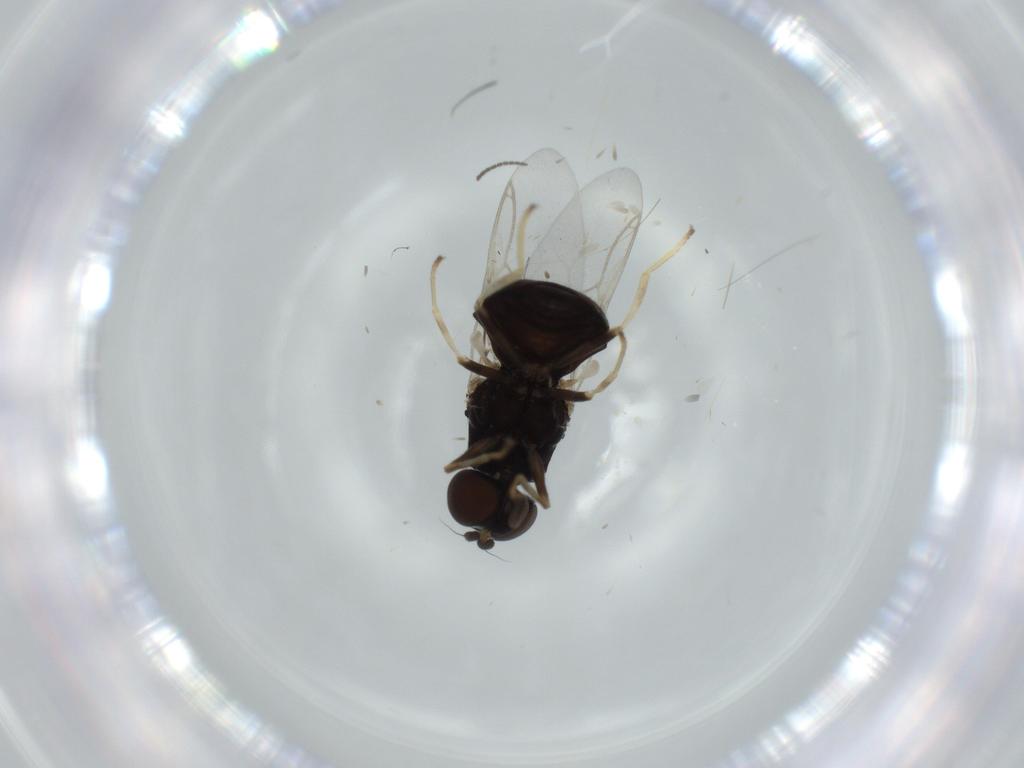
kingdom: Animalia
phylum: Arthropoda
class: Insecta
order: Diptera
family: Stratiomyidae
